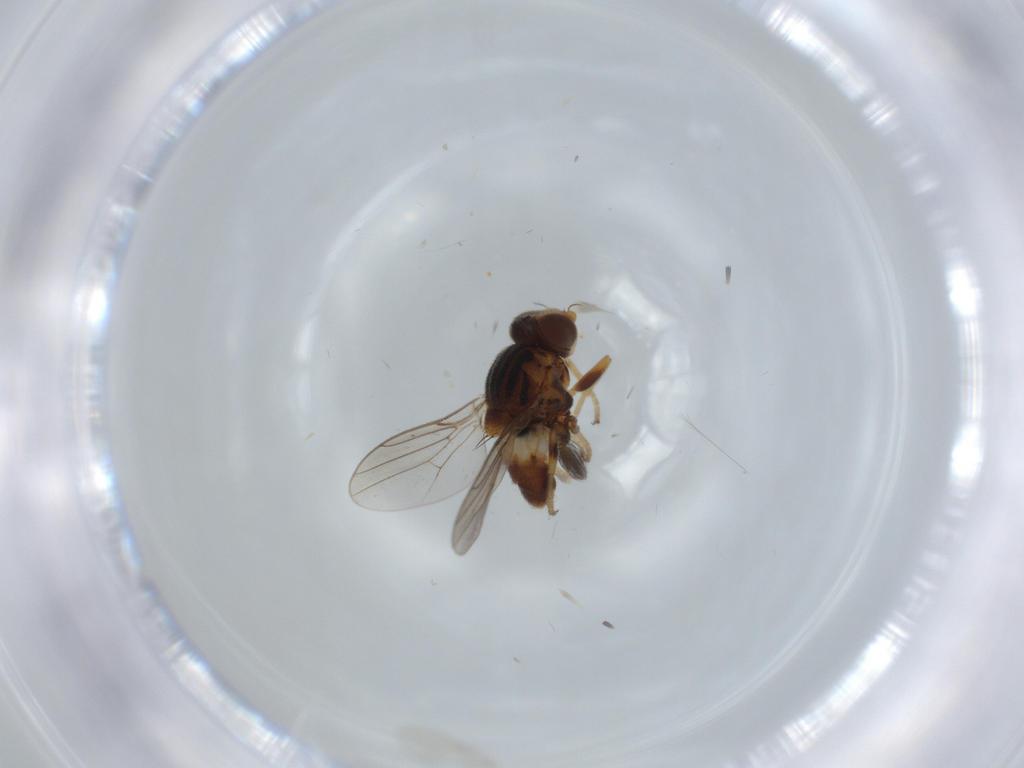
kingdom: Animalia
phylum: Arthropoda
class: Insecta
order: Diptera
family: Chloropidae
